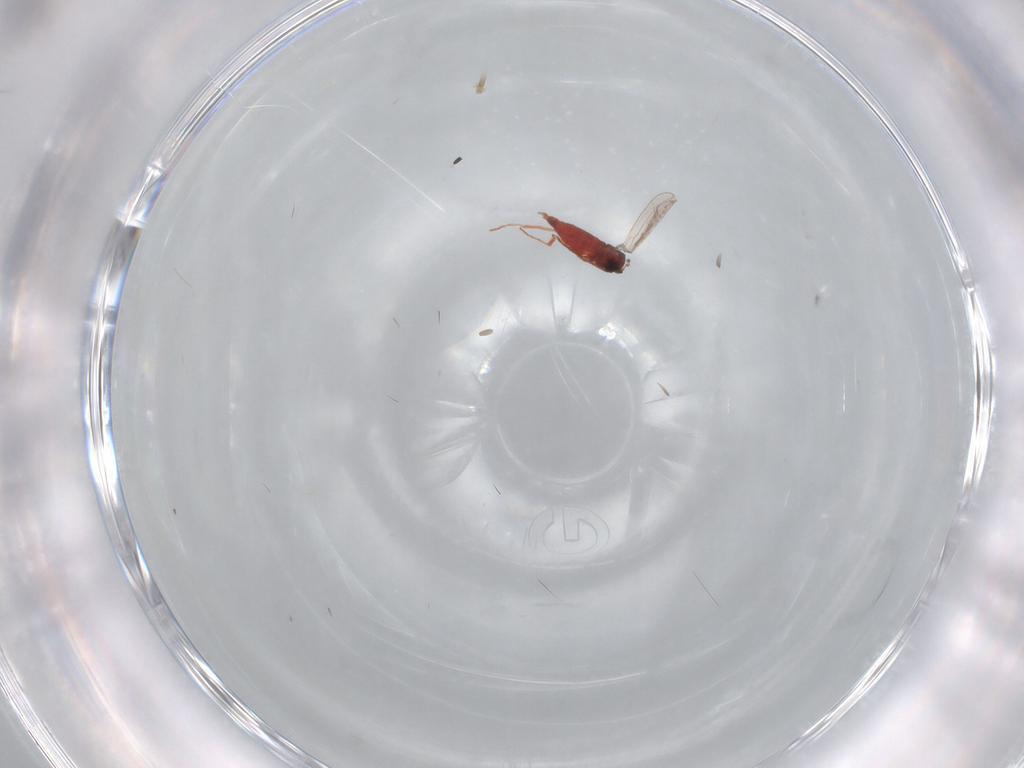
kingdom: Animalia
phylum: Arthropoda
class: Insecta
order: Diptera
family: Cecidomyiidae
